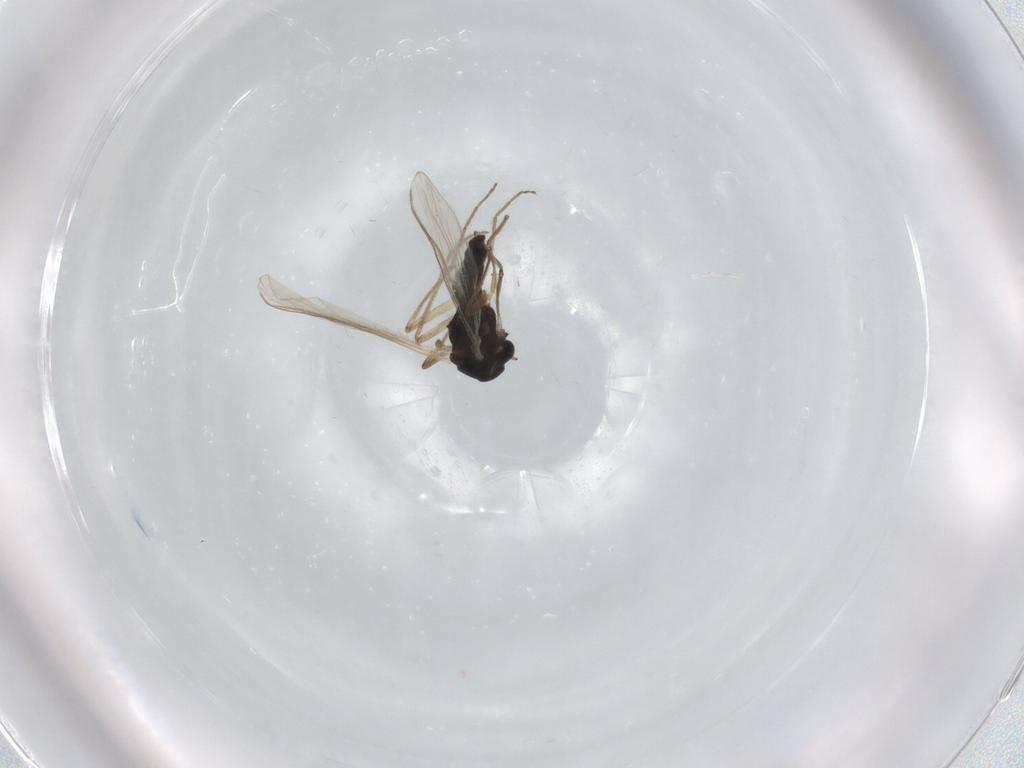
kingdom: Animalia
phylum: Arthropoda
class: Insecta
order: Diptera
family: Chironomidae
